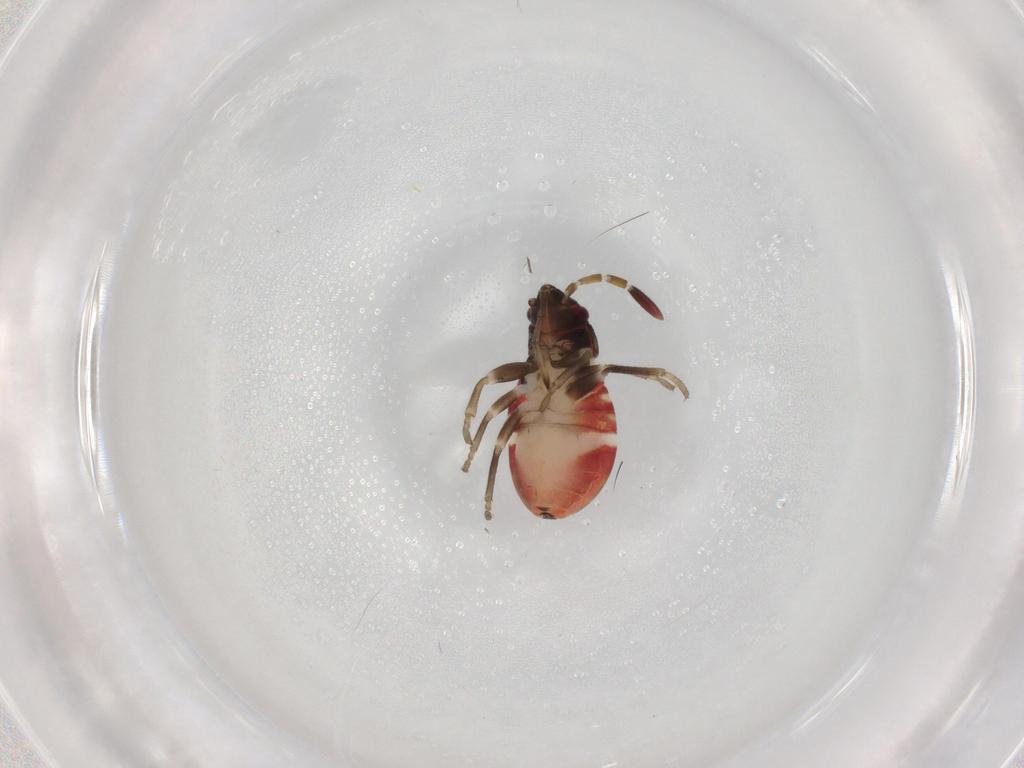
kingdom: Animalia
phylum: Arthropoda
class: Insecta
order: Hemiptera
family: Rhyparochromidae
